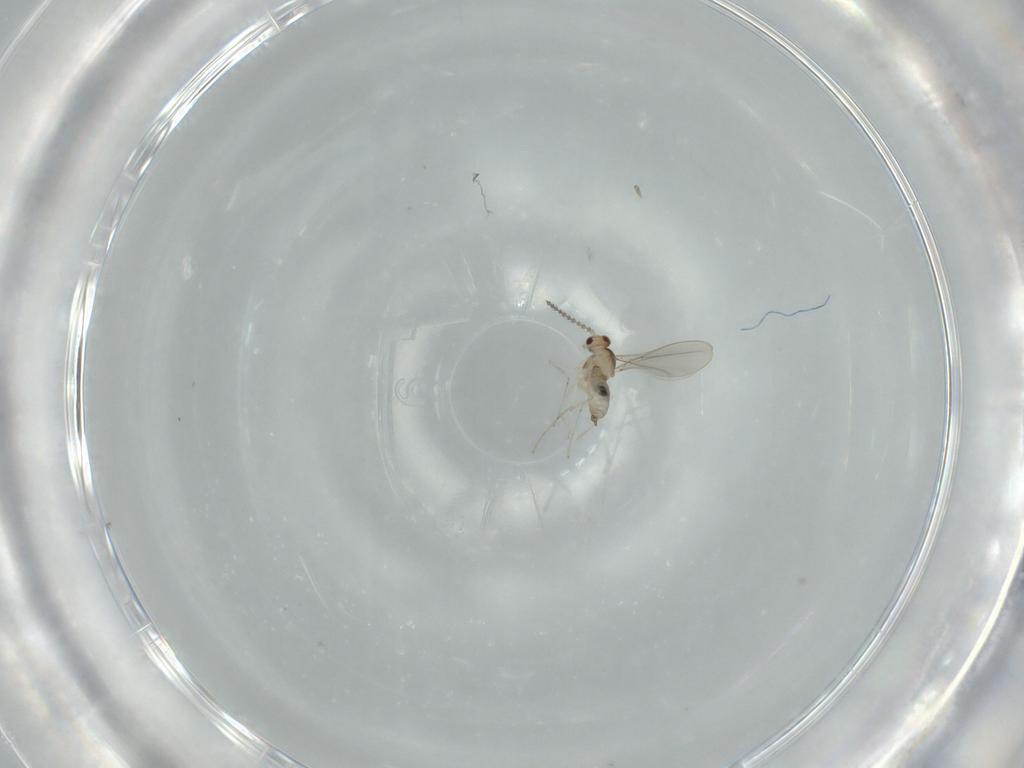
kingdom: Animalia
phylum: Arthropoda
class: Insecta
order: Diptera
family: Cecidomyiidae
